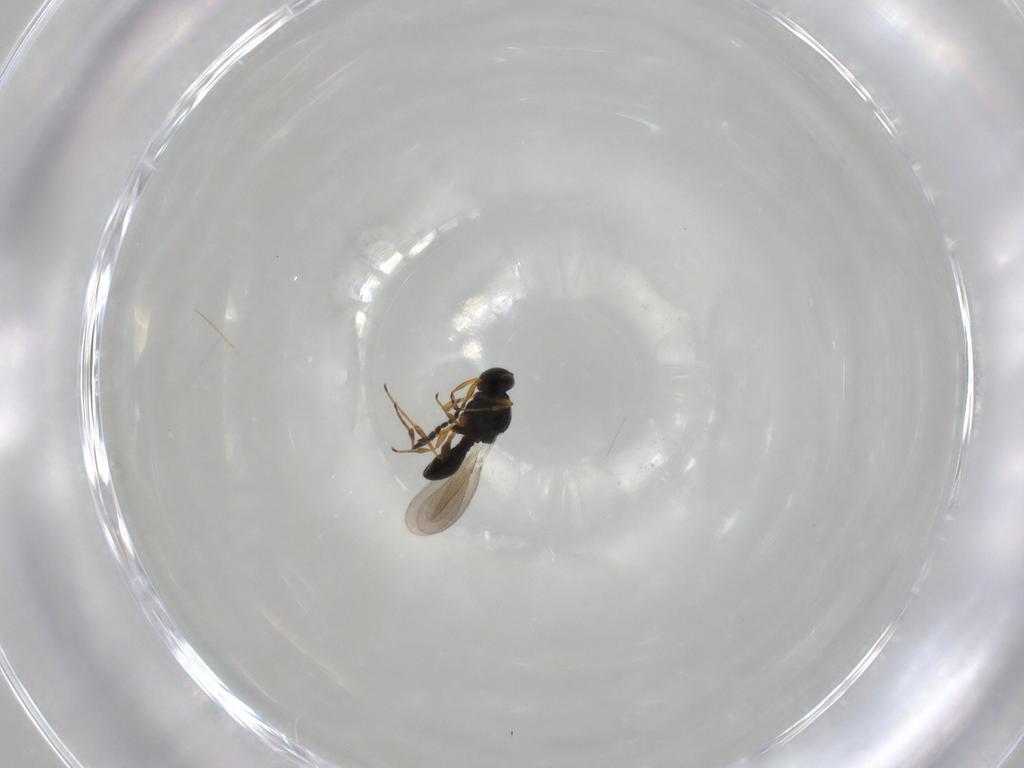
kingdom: Animalia
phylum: Arthropoda
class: Insecta
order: Hymenoptera
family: Platygastridae
